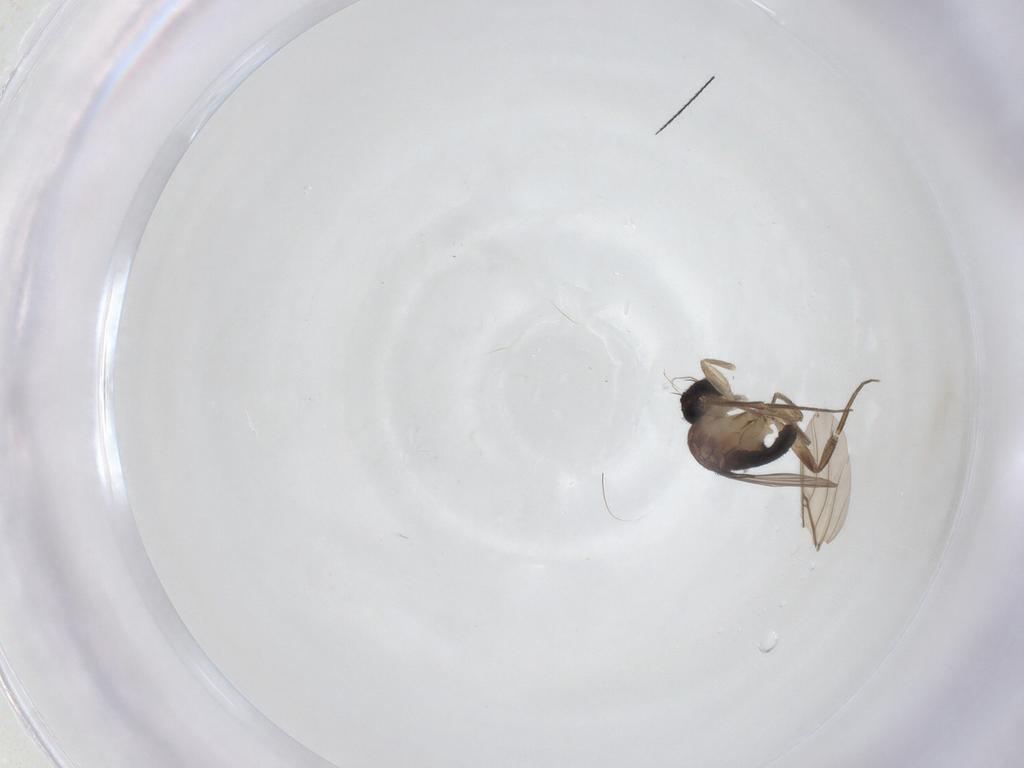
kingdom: Animalia
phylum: Arthropoda
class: Insecta
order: Diptera
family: Phoridae
